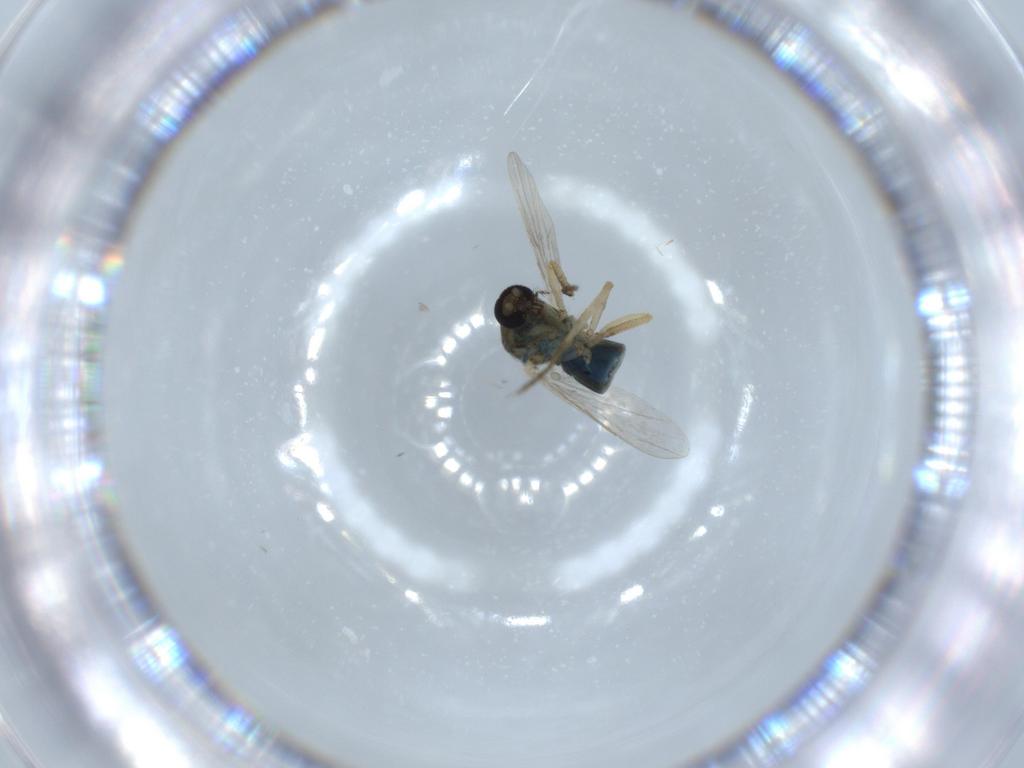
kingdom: Animalia
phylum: Arthropoda
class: Insecta
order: Diptera
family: Ceratopogonidae
